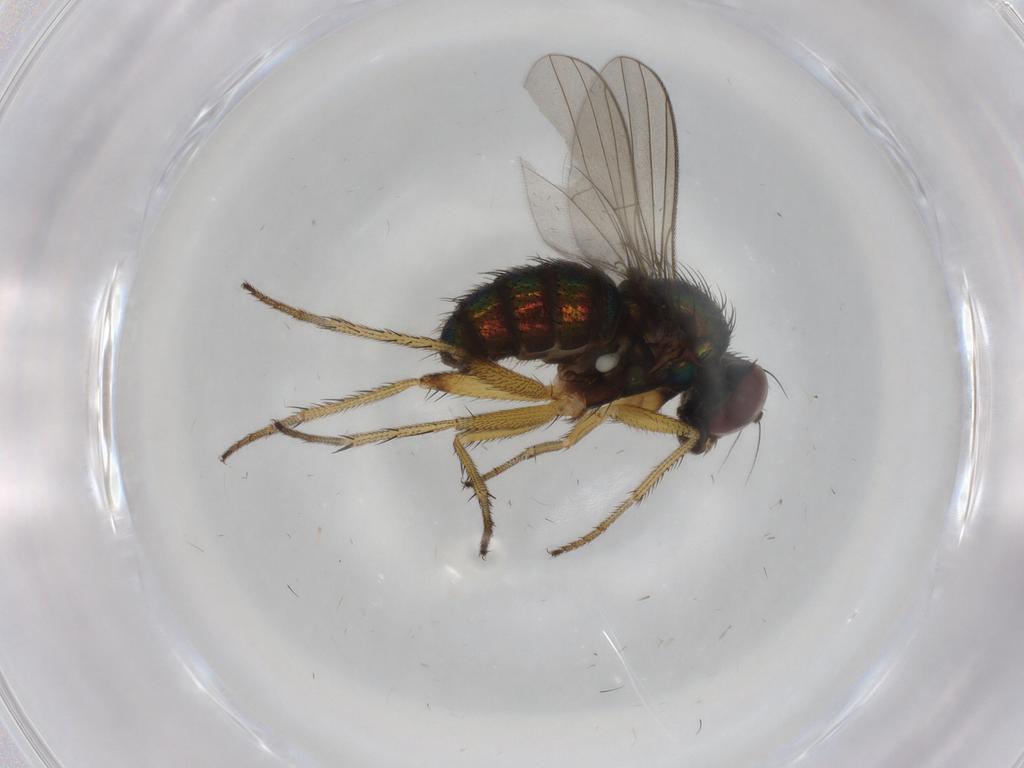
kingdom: Animalia
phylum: Arthropoda
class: Insecta
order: Diptera
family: Dolichopodidae
